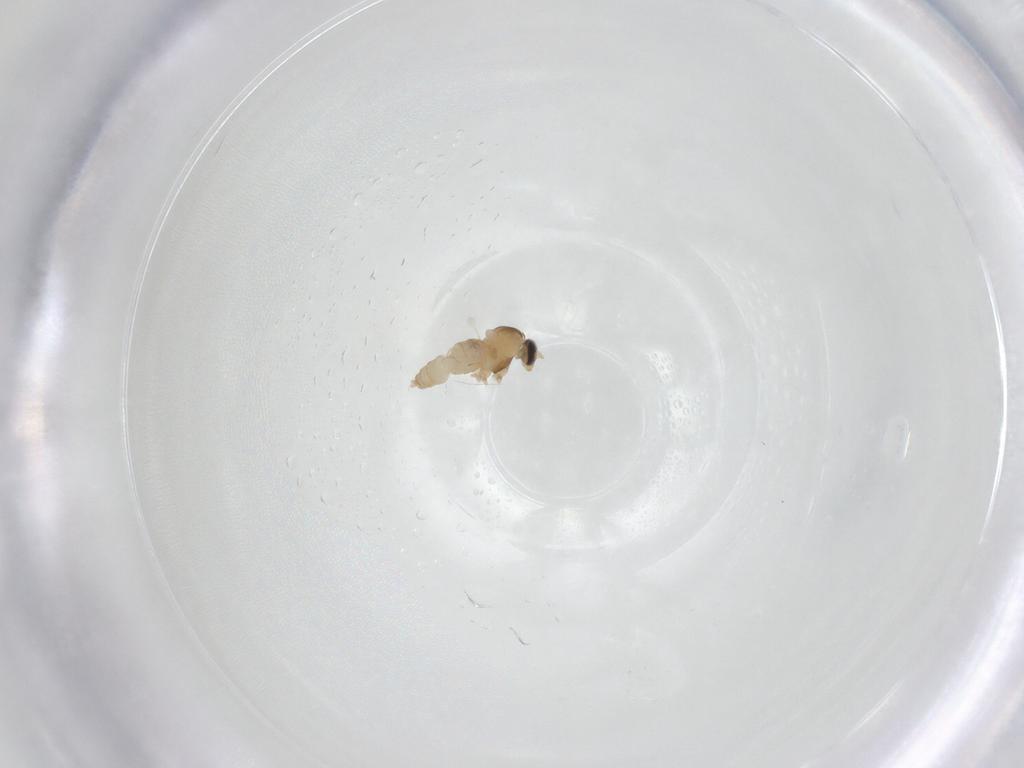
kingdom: Animalia
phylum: Arthropoda
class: Insecta
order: Diptera
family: Cecidomyiidae
